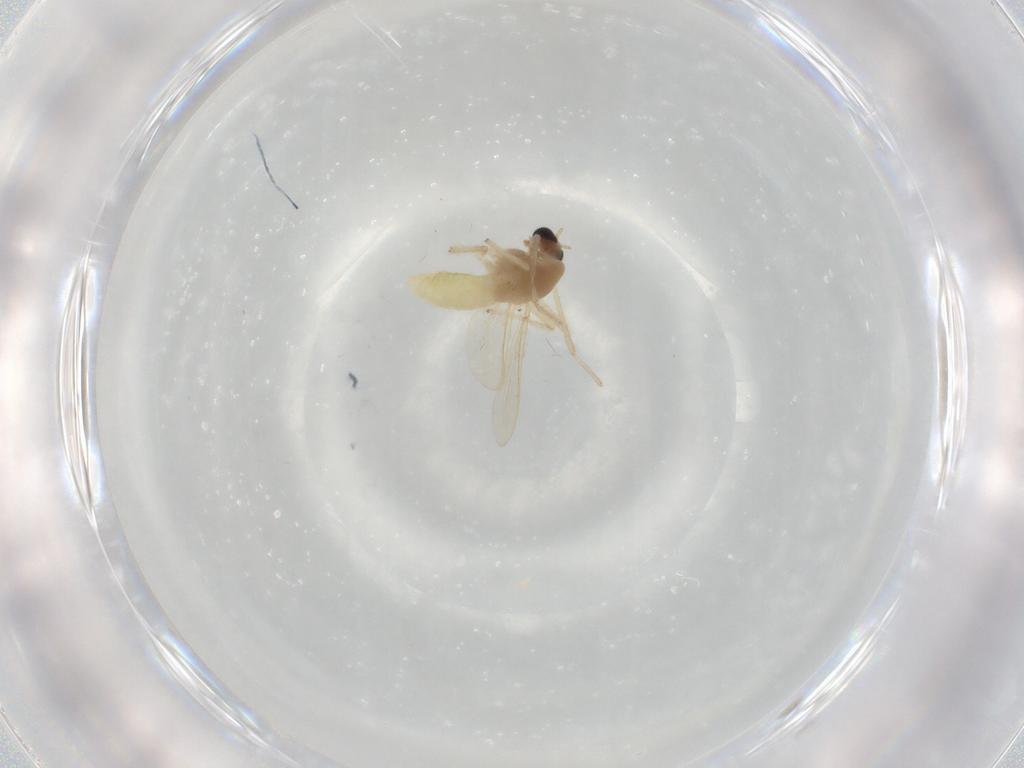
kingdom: Animalia
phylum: Arthropoda
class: Insecta
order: Diptera
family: Chironomidae
